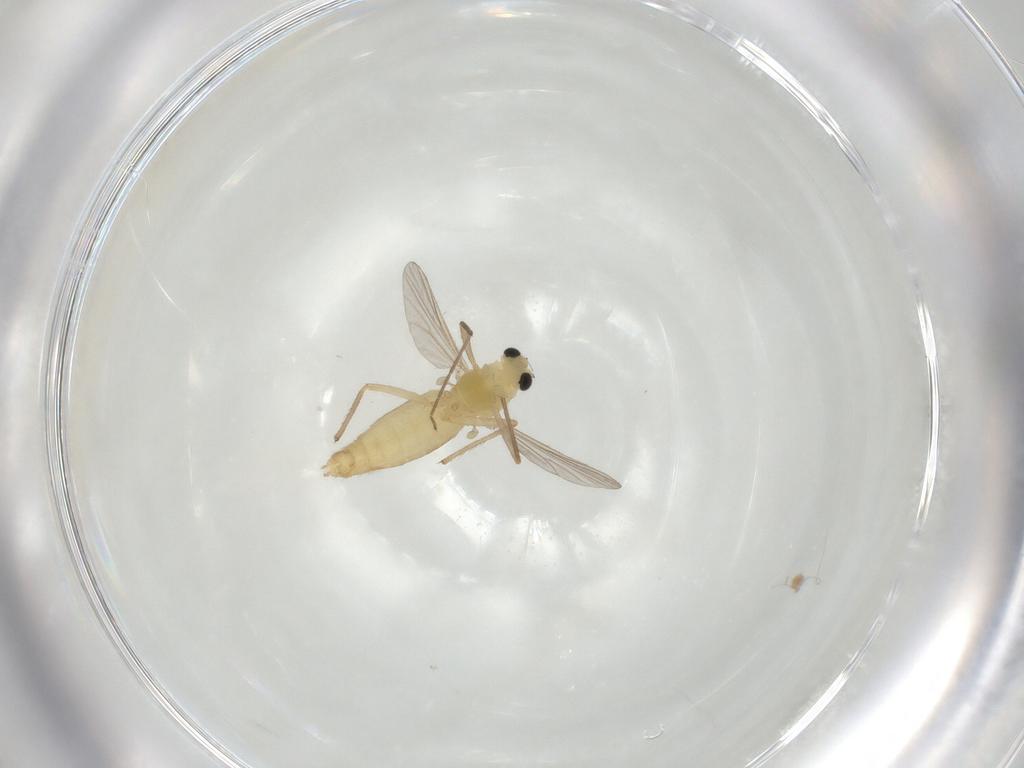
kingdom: Animalia
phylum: Arthropoda
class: Insecta
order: Diptera
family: Chironomidae
